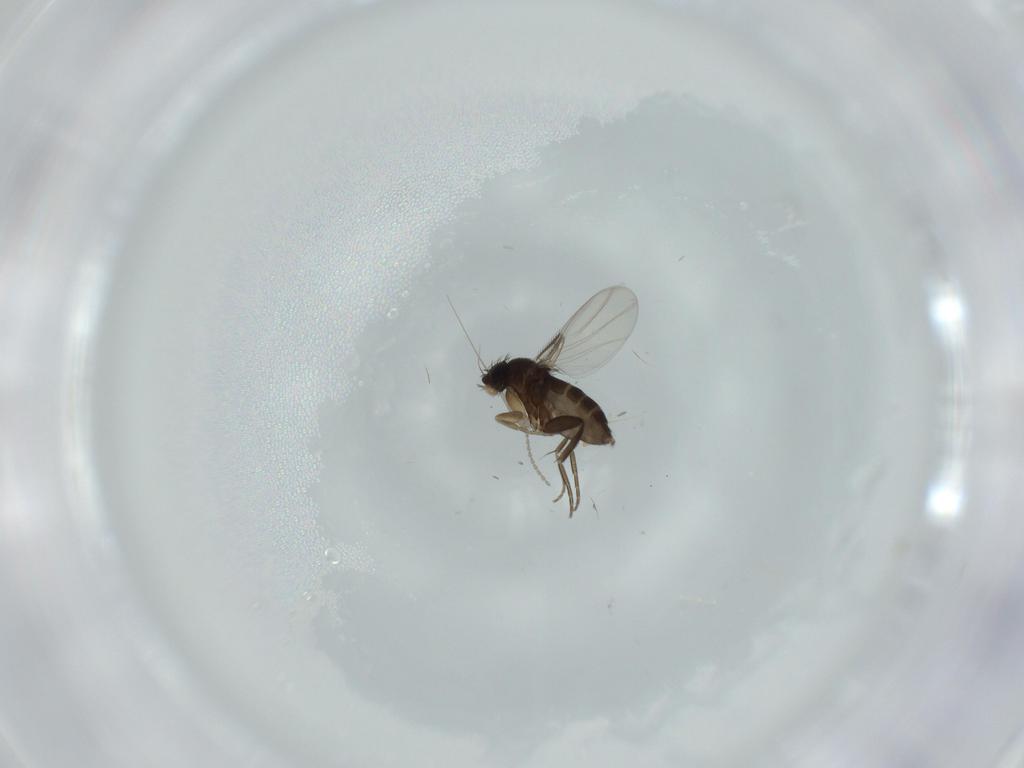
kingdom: Animalia
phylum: Arthropoda
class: Insecta
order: Diptera
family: Phoridae
